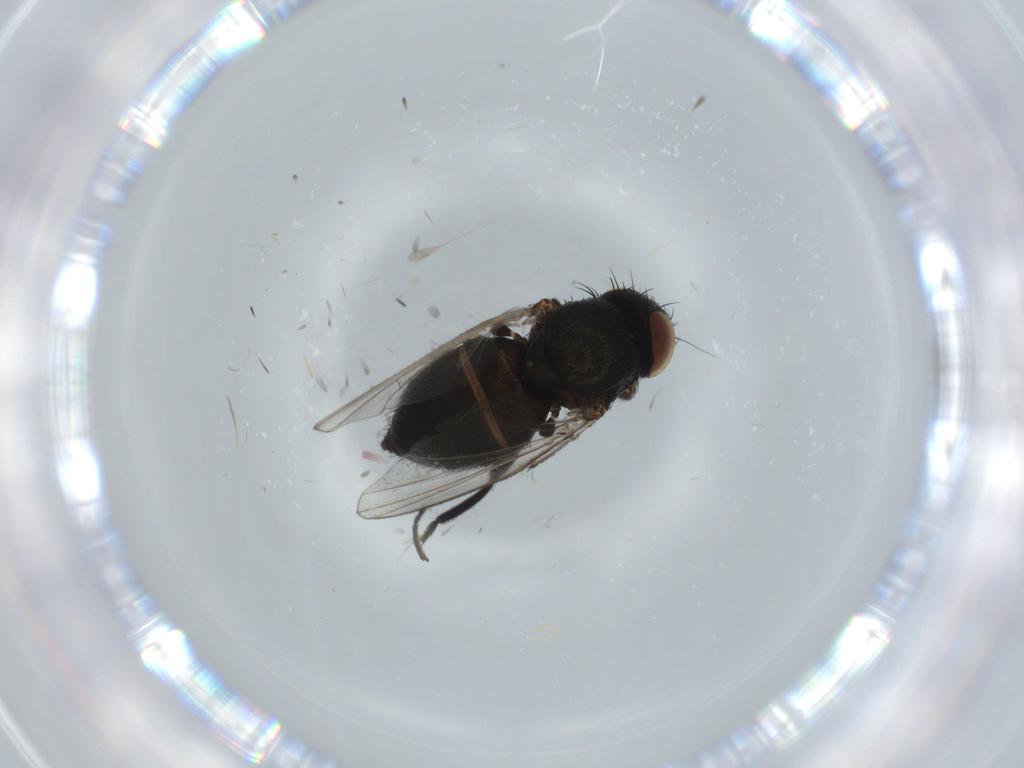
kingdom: Animalia
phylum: Arthropoda
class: Insecta
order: Diptera
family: Milichiidae
